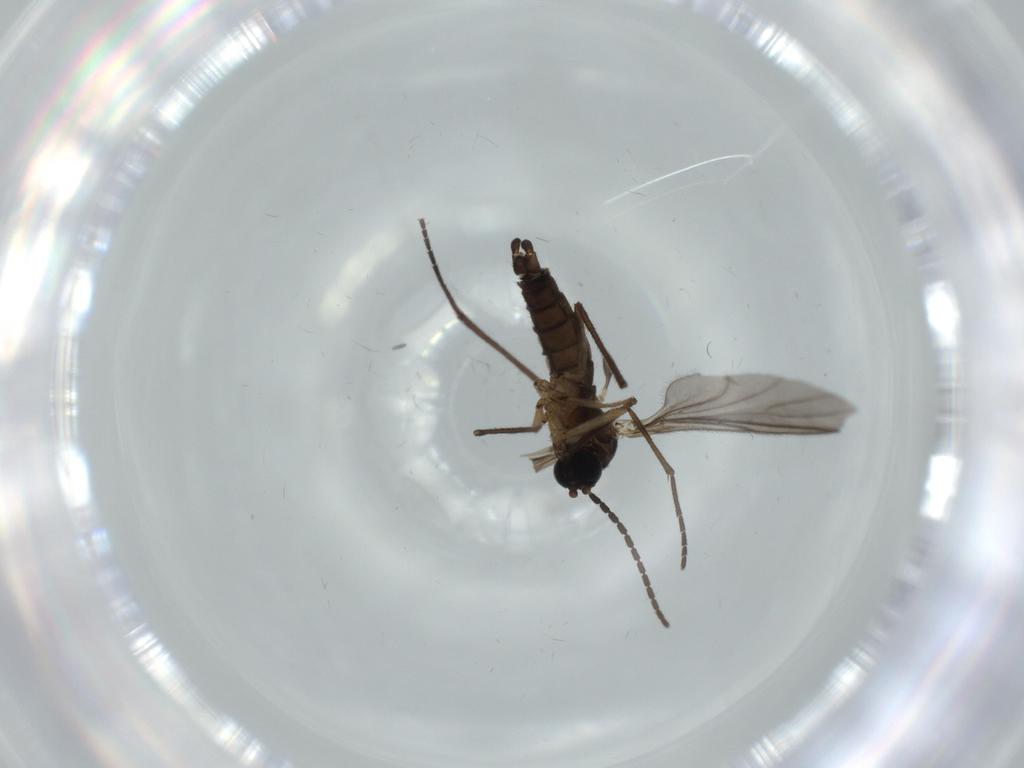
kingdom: Animalia
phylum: Arthropoda
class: Insecta
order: Diptera
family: Sciaridae
